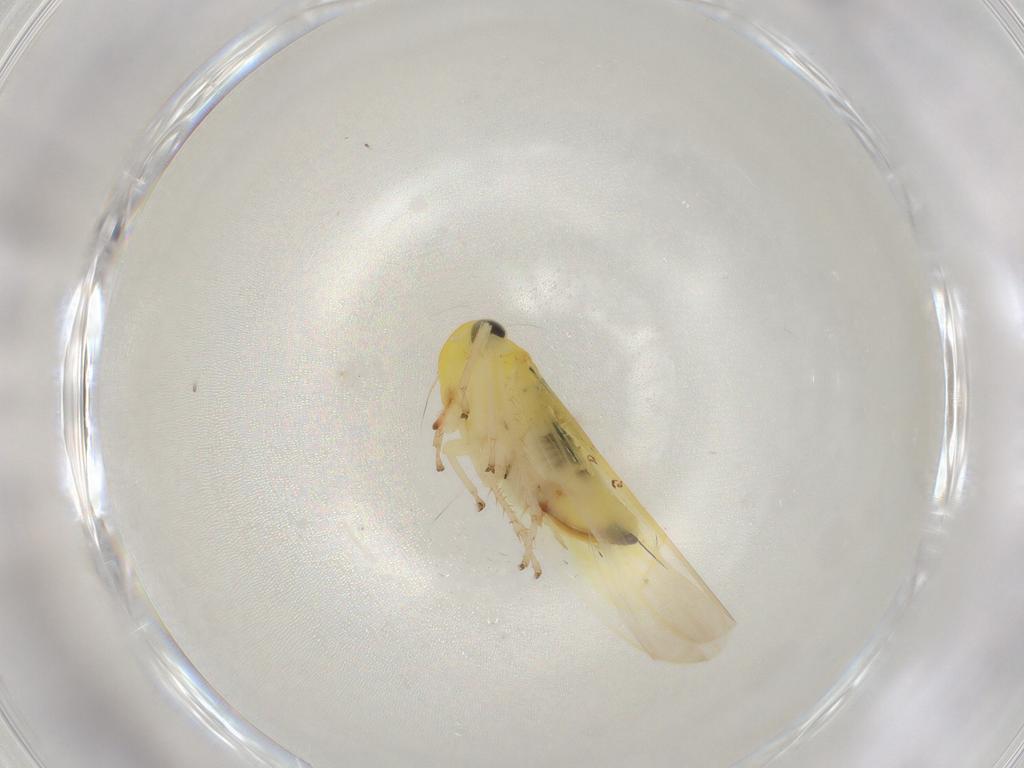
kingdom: Animalia
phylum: Arthropoda
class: Insecta
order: Hemiptera
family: Cicadellidae
